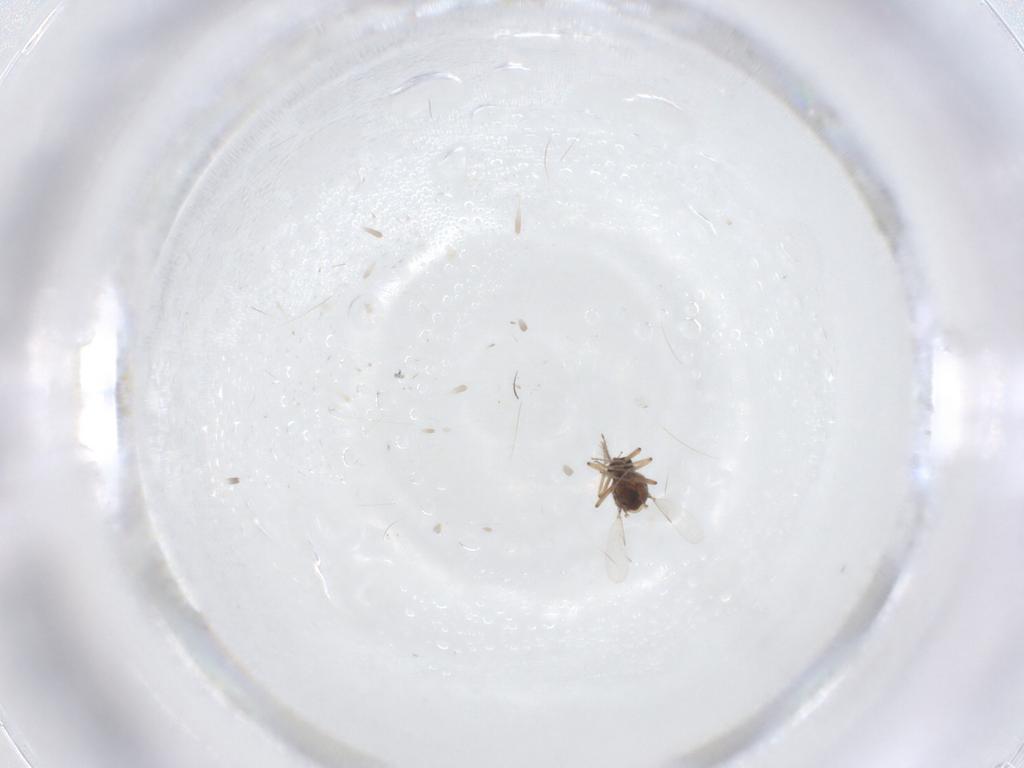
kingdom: Animalia
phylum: Arthropoda
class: Insecta
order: Diptera
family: Ceratopogonidae
